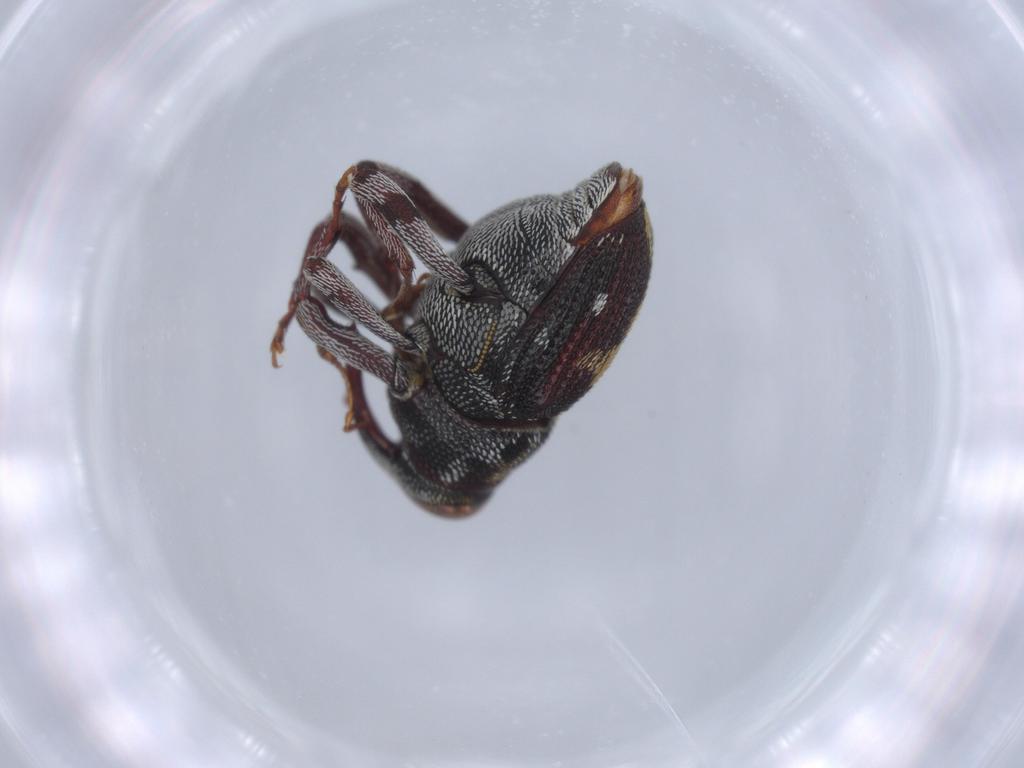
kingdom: Animalia
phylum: Arthropoda
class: Insecta
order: Coleoptera
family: Curculionidae
